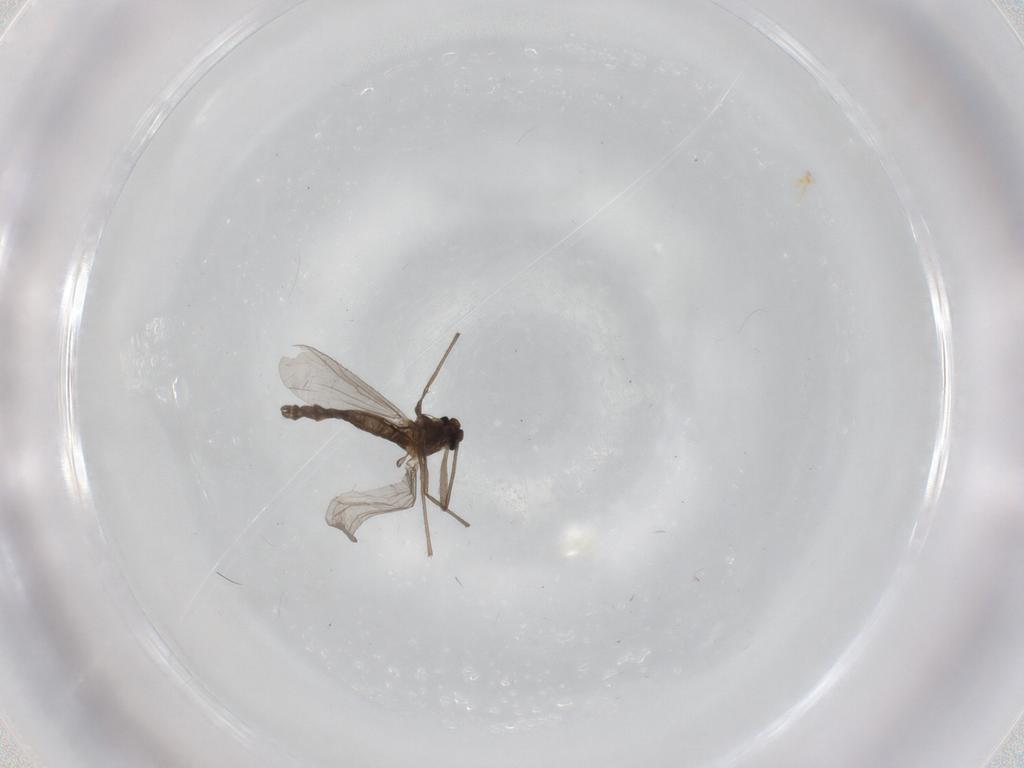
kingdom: Animalia
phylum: Arthropoda
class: Insecta
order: Diptera
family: Chironomidae
